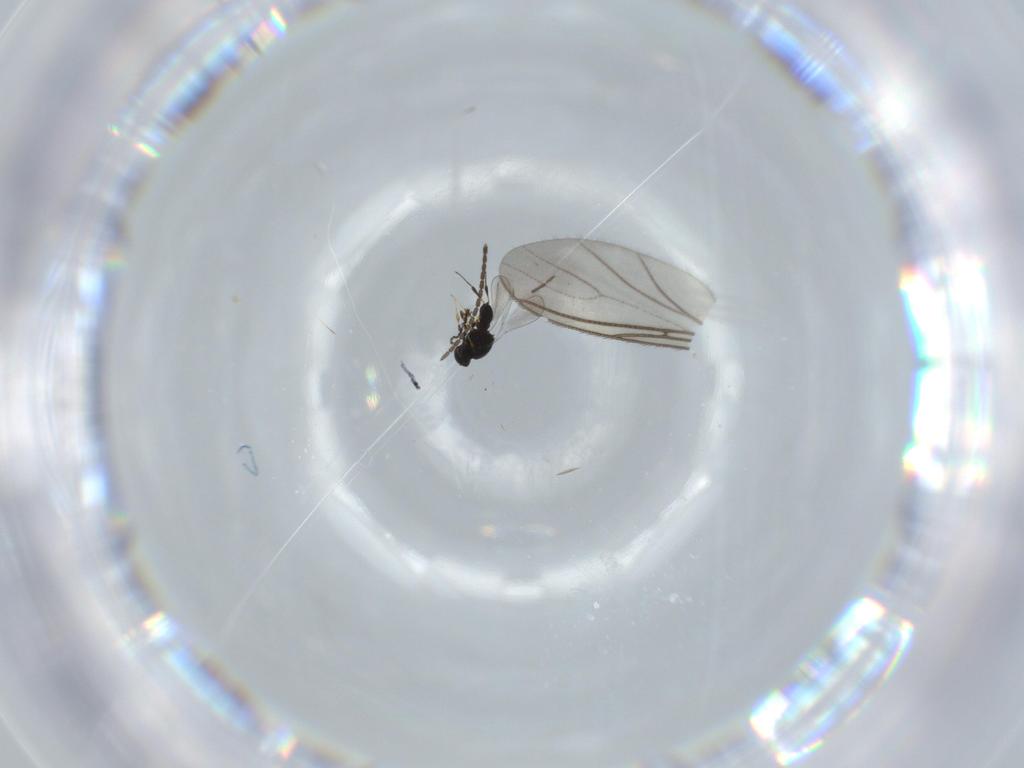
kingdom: Animalia
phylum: Arthropoda
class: Insecta
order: Hymenoptera
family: Platygastridae
